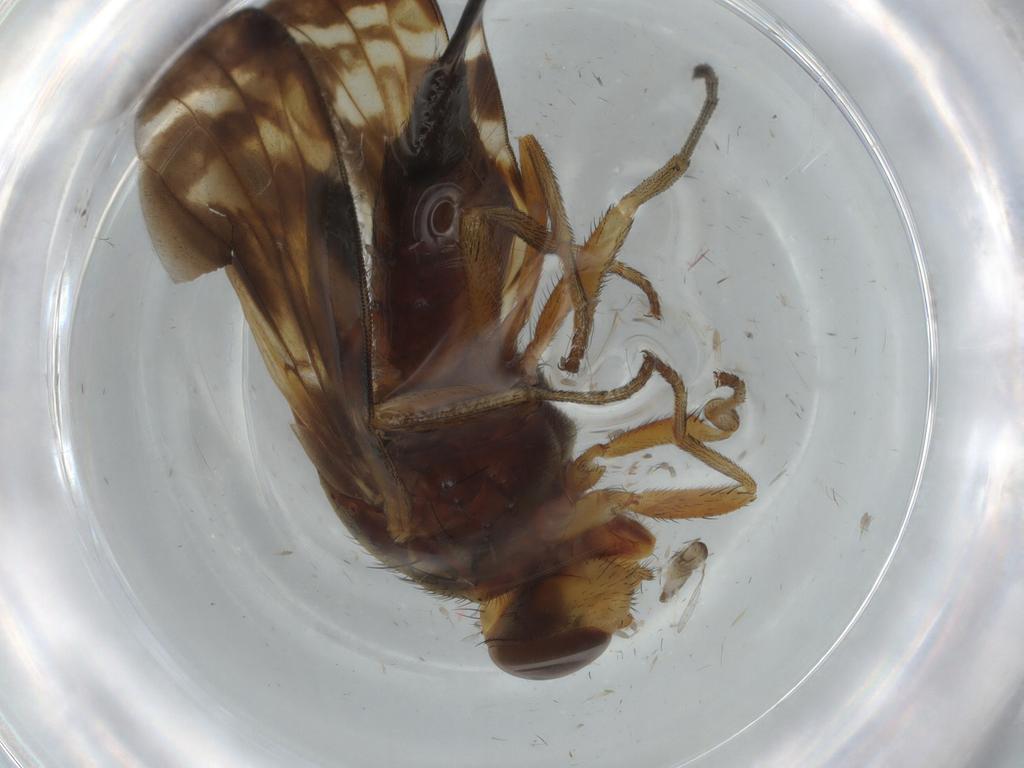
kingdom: Animalia
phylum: Arthropoda
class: Insecta
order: Diptera
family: Ulidiidae
